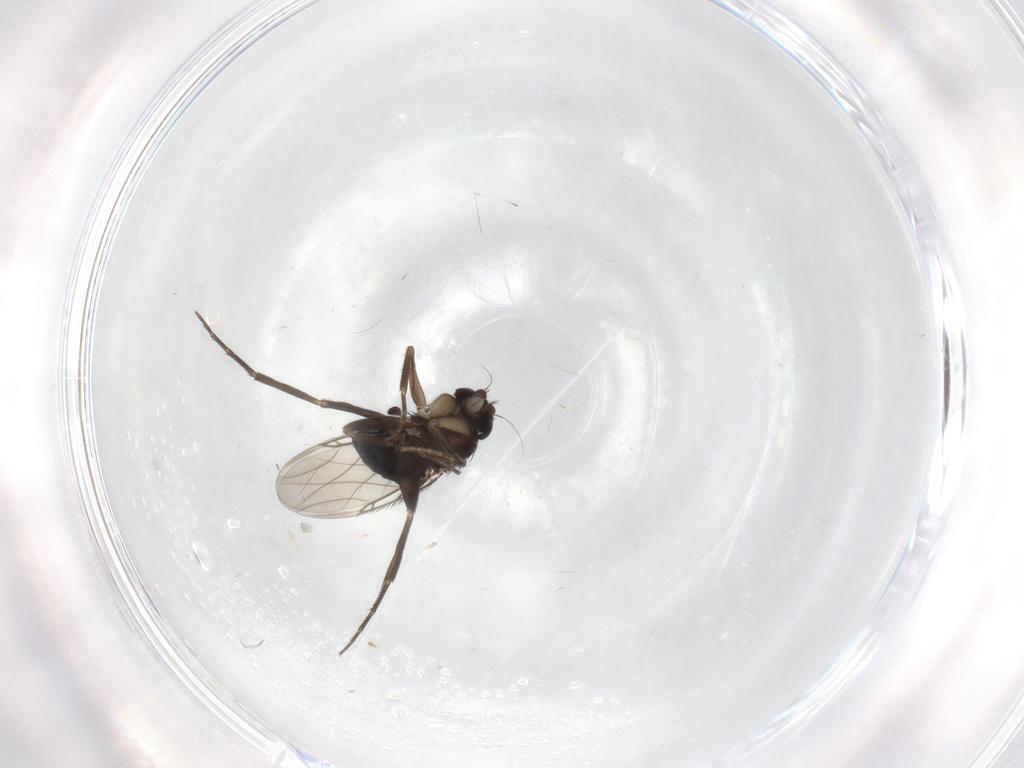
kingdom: Animalia
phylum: Arthropoda
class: Insecta
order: Diptera
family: Phoridae
